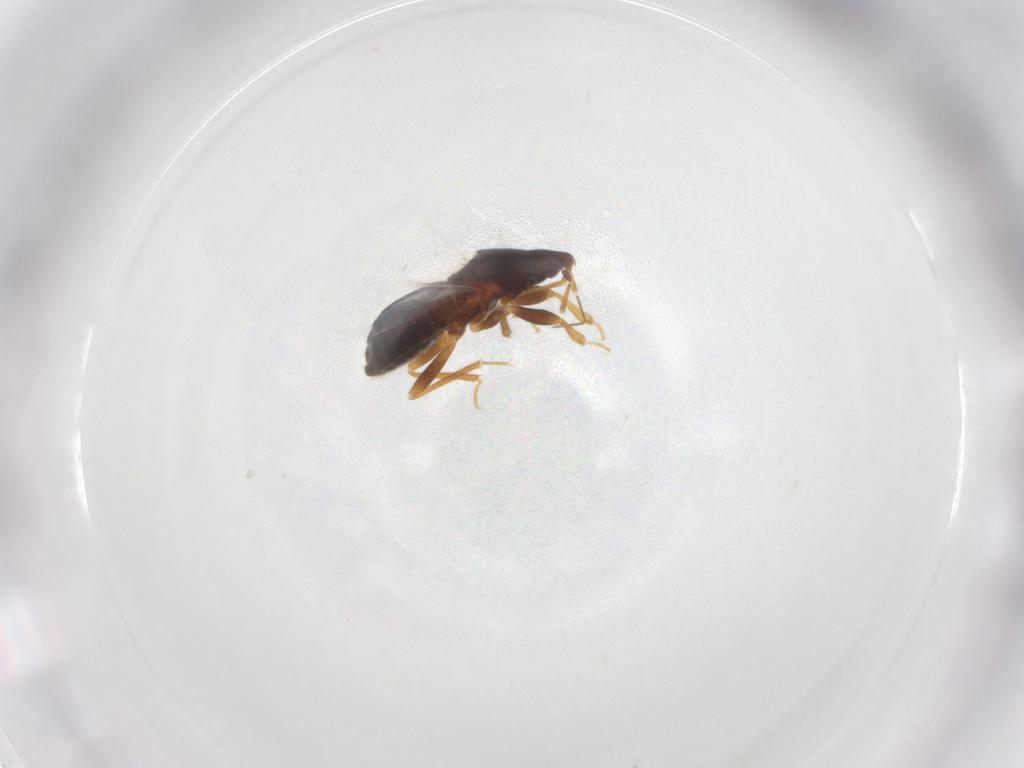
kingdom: Animalia
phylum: Arthropoda
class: Insecta
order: Hemiptera
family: Anthocoridae
